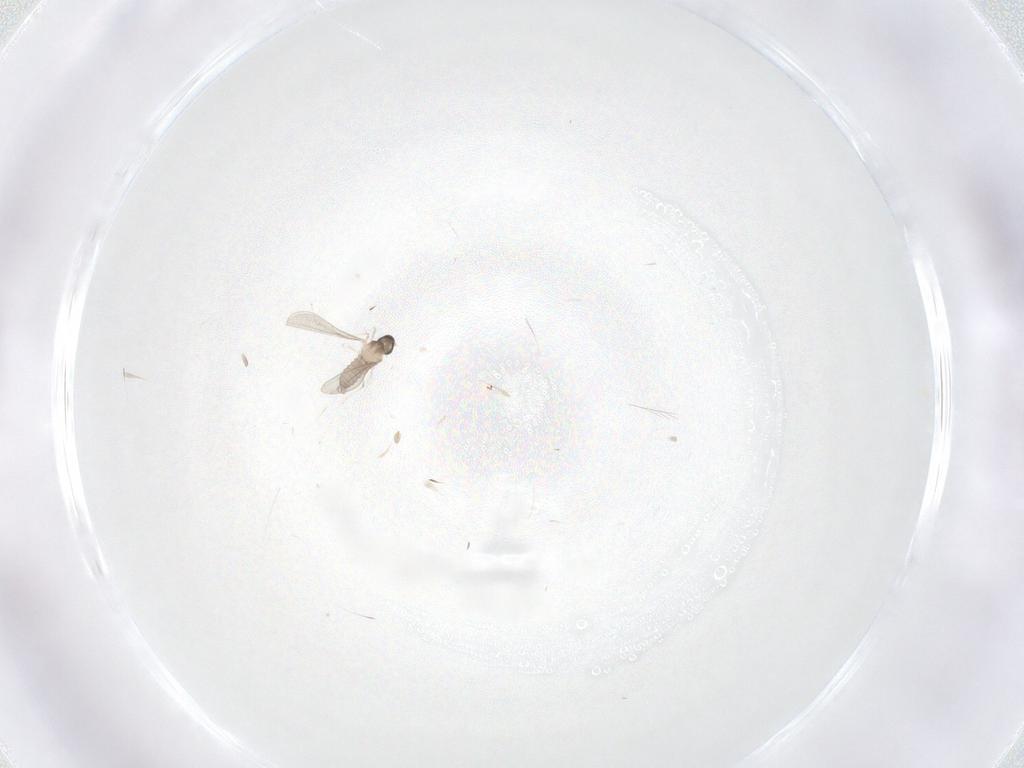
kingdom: Animalia
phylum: Arthropoda
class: Insecta
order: Diptera
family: Cecidomyiidae
